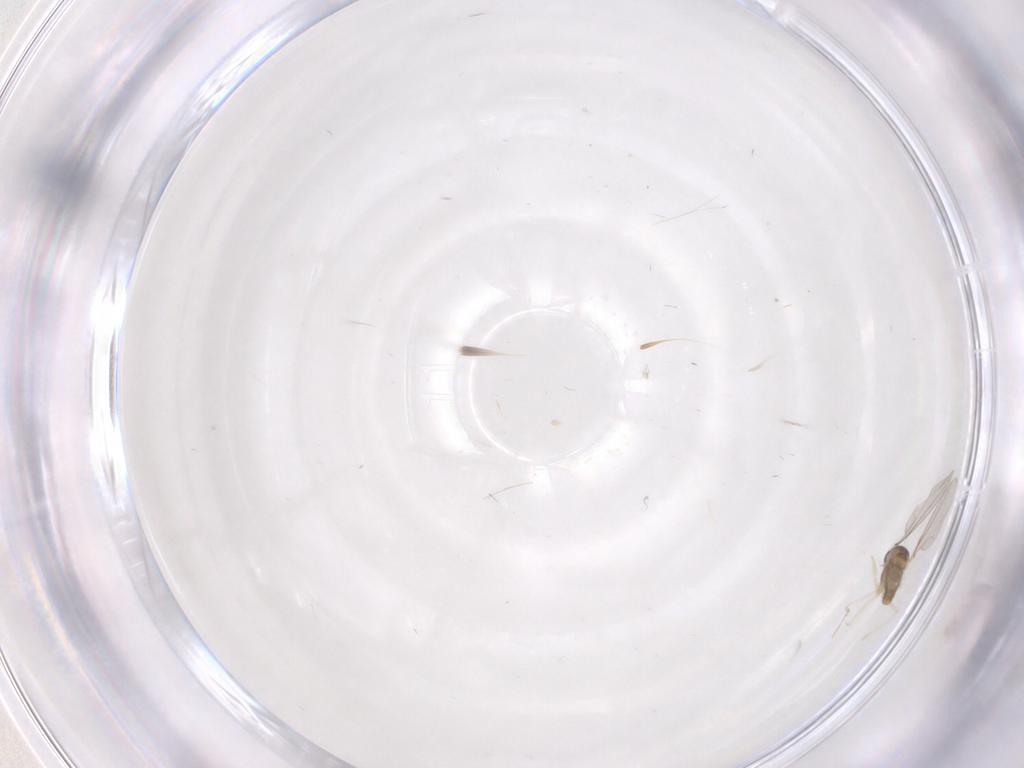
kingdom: Animalia
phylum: Arthropoda
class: Insecta
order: Diptera
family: Cecidomyiidae
